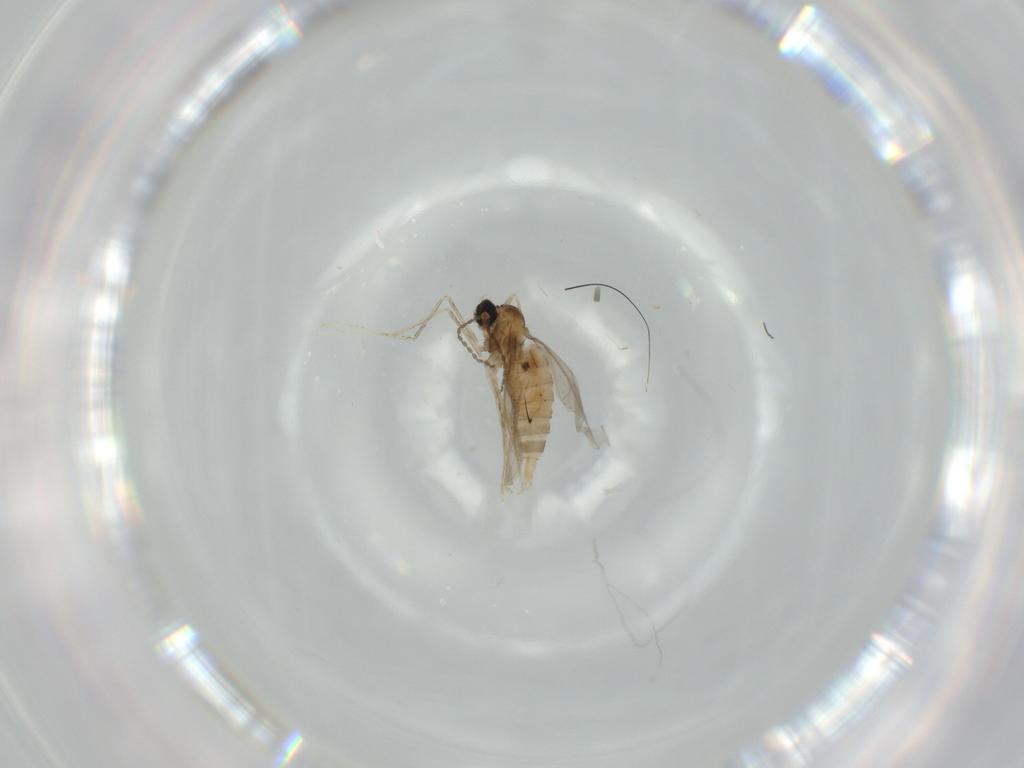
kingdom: Animalia
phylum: Arthropoda
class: Insecta
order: Diptera
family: Cecidomyiidae
